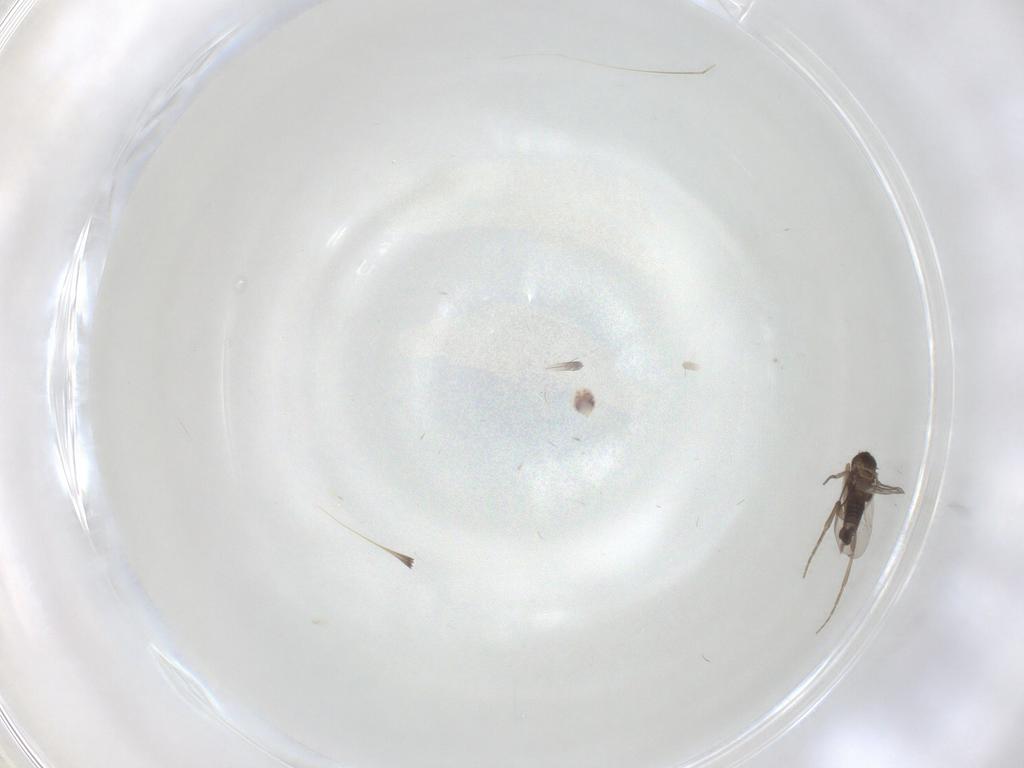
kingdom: Animalia
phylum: Arthropoda
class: Insecta
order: Diptera
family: Phoridae
